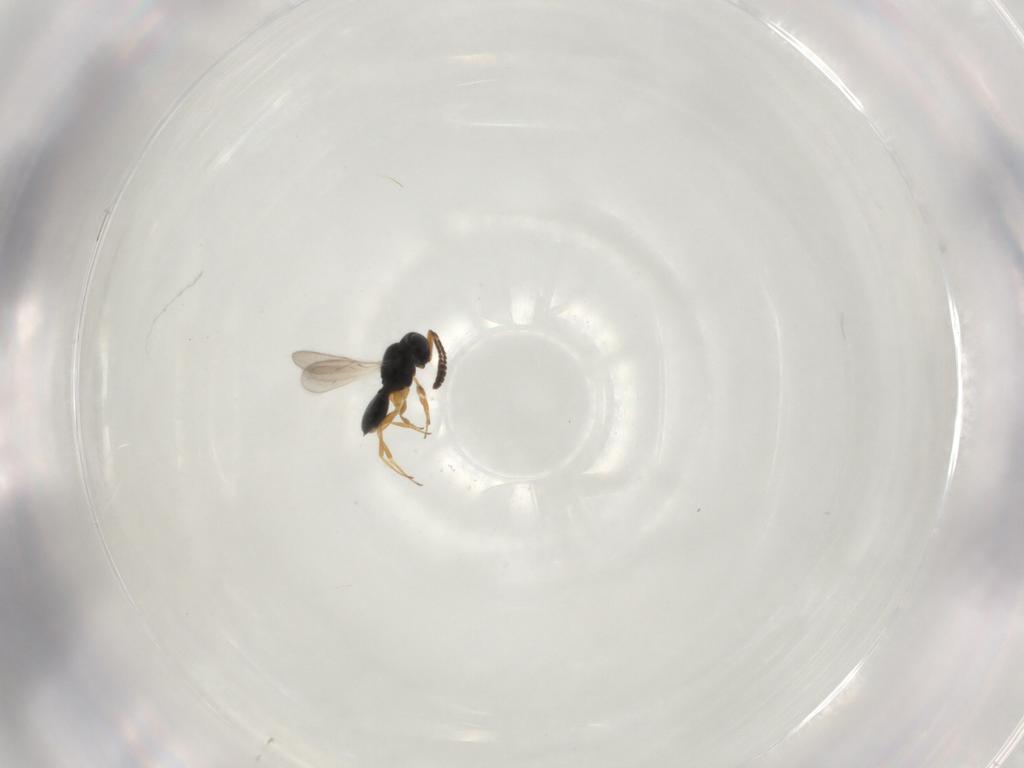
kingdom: Animalia
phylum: Arthropoda
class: Insecta
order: Hymenoptera
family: Scelionidae
